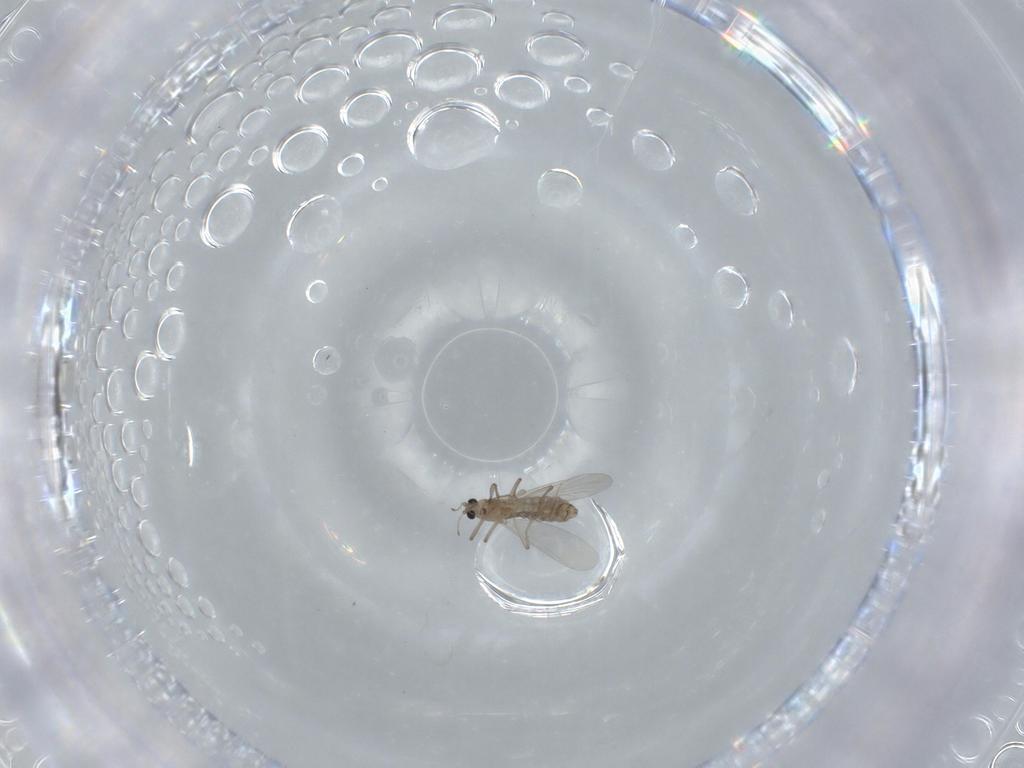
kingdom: Animalia
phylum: Arthropoda
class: Insecta
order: Diptera
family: Chironomidae
